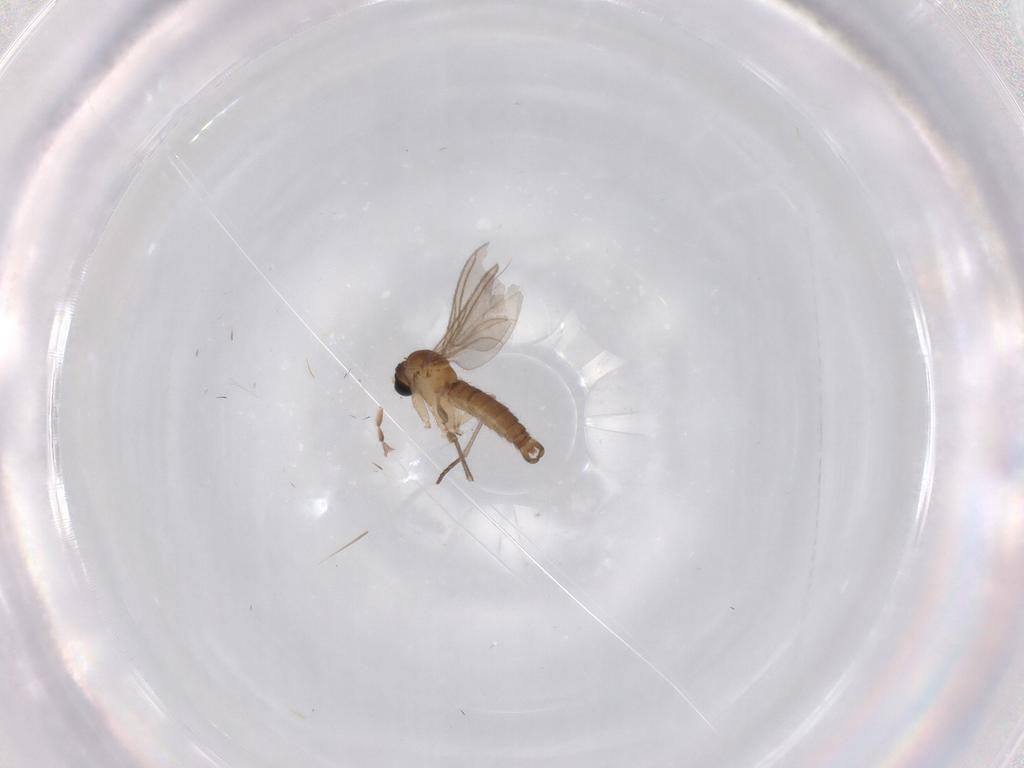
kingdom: Animalia
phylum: Arthropoda
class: Insecta
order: Diptera
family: Sciaridae
